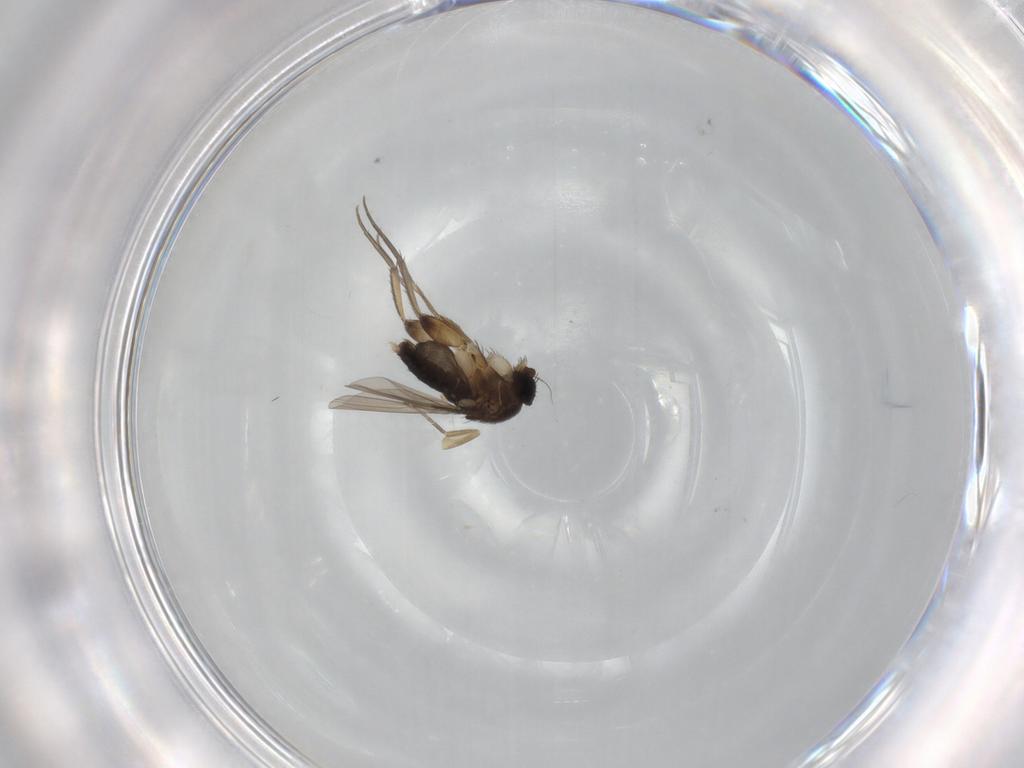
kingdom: Animalia
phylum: Arthropoda
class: Insecta
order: Diptera
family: Phoridae
